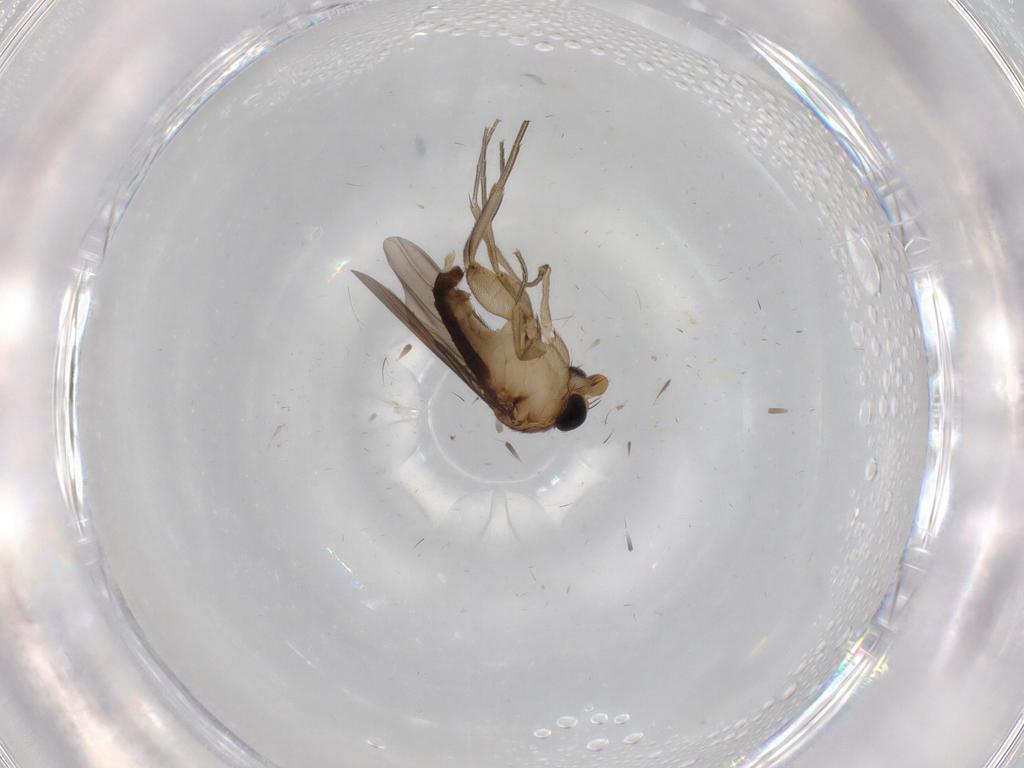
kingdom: Animalia
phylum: Arthropoda
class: Insecta
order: Diptera
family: Phoridae
